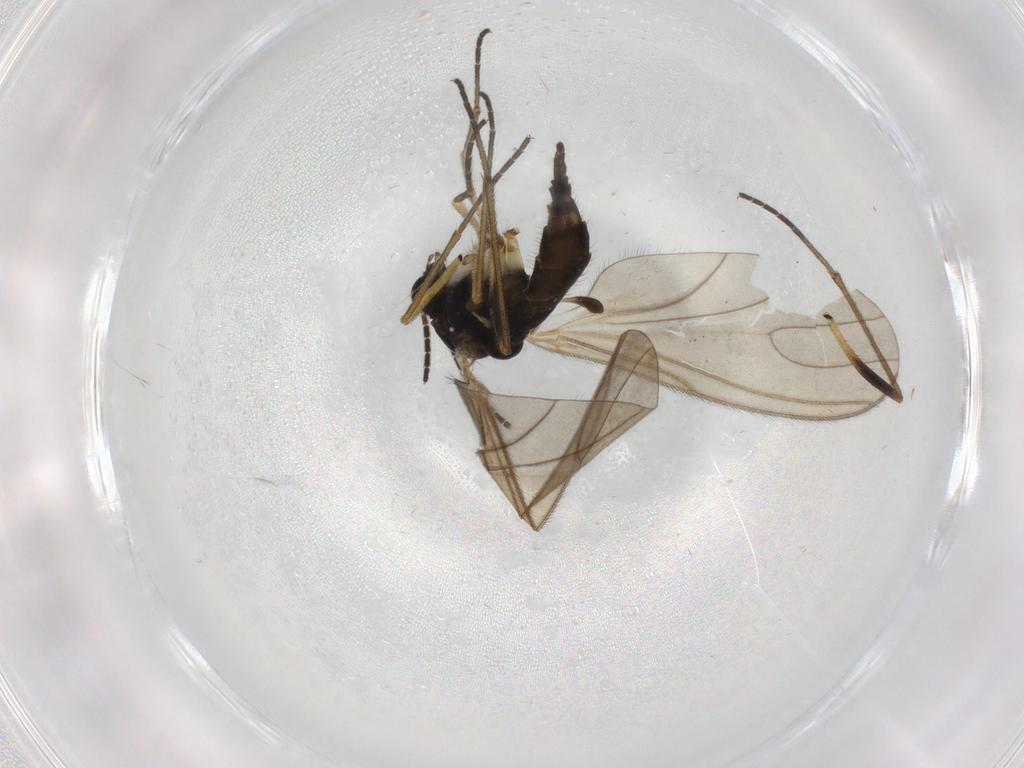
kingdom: Animalia
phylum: Arthropoda
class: Insecta
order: Diptera
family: Sciaridae
